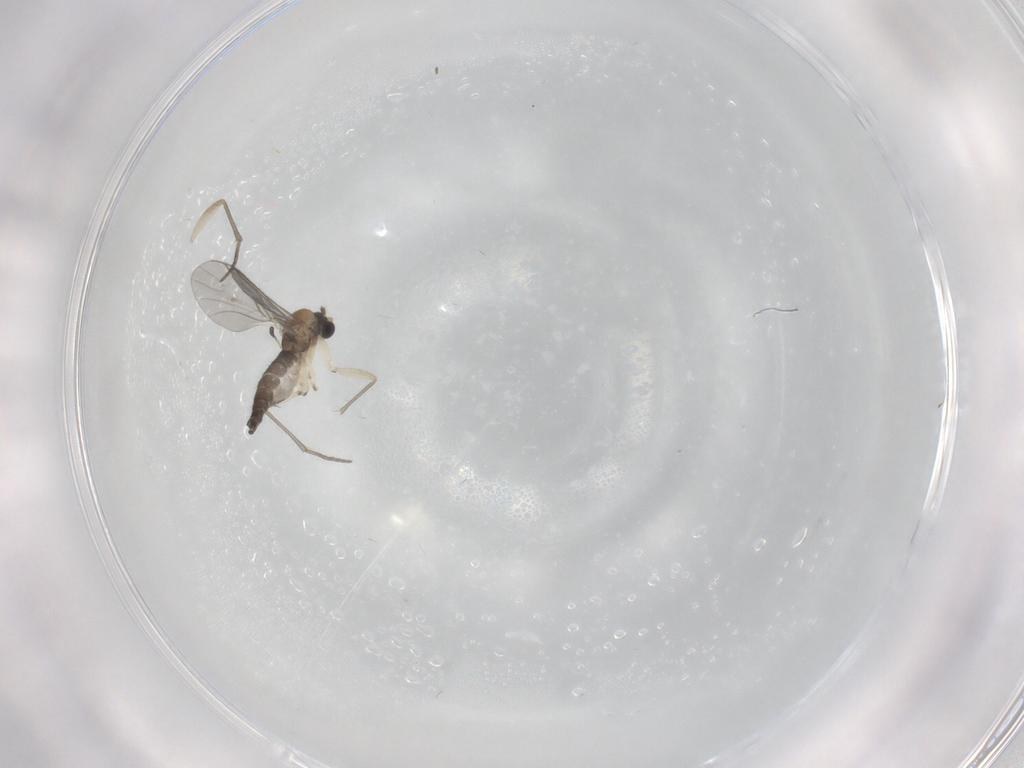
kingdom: Animalia
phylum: Arthropoda
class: Insecta
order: Diptera
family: Sciaridae
